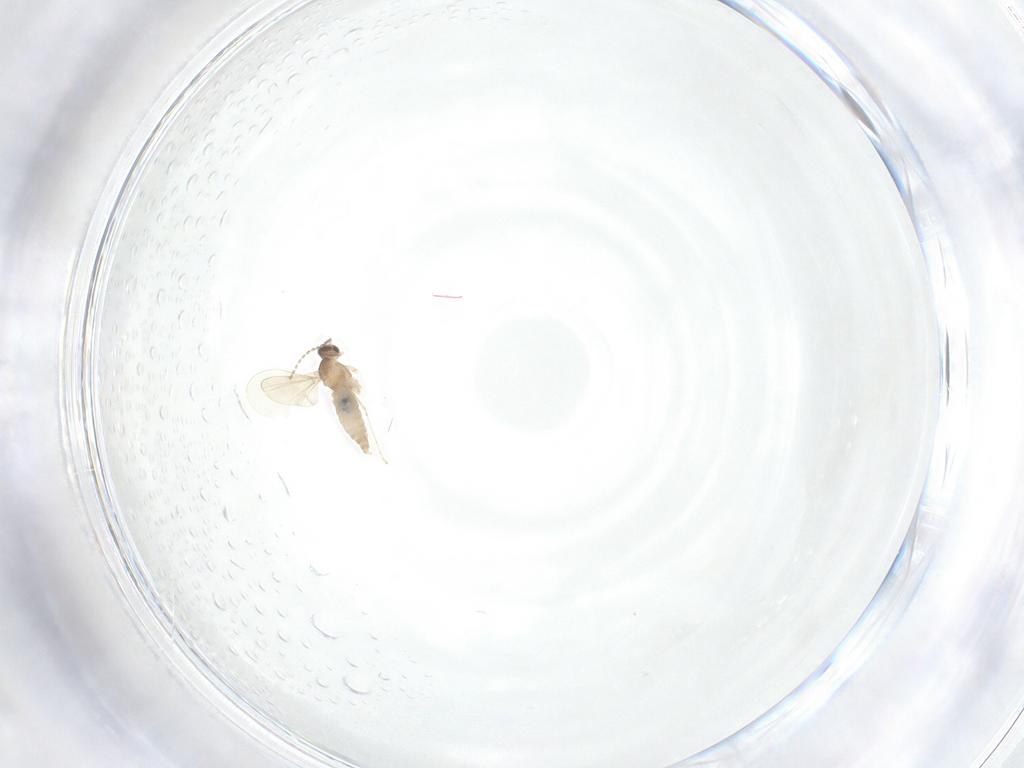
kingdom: Animalia
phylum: Arthropoda
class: Insecta
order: Diptera
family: Cecidomyiidae
